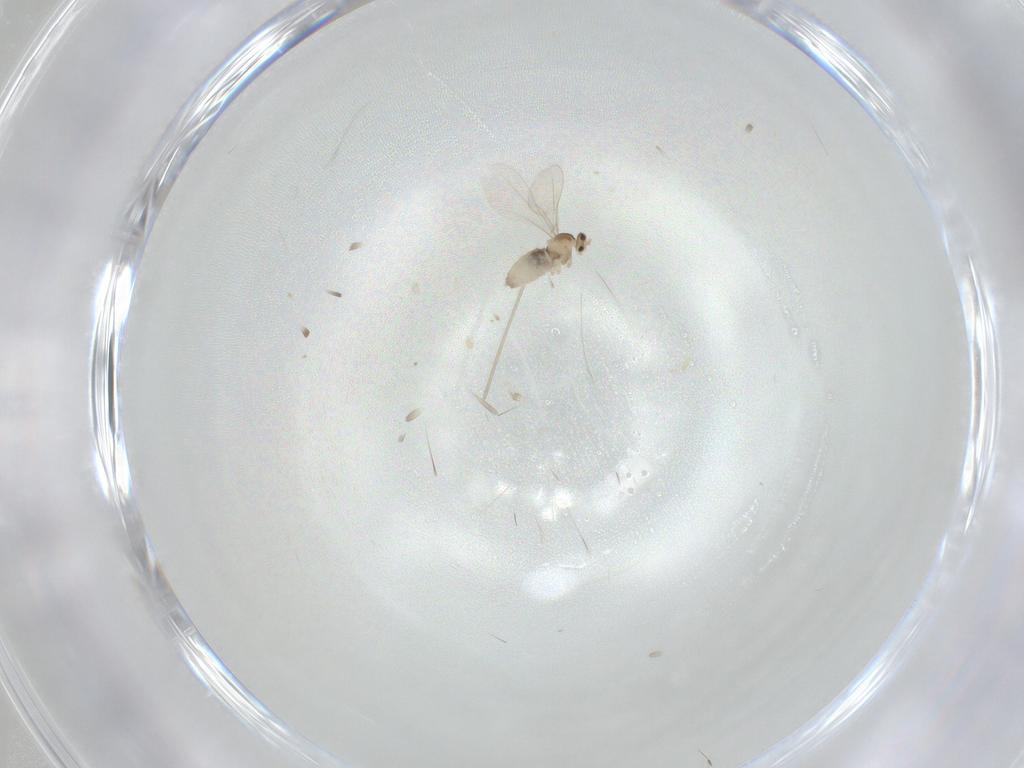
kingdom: Animalia
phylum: Arthropoda
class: Insecta
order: Diptera
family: Cecidomyiidae
